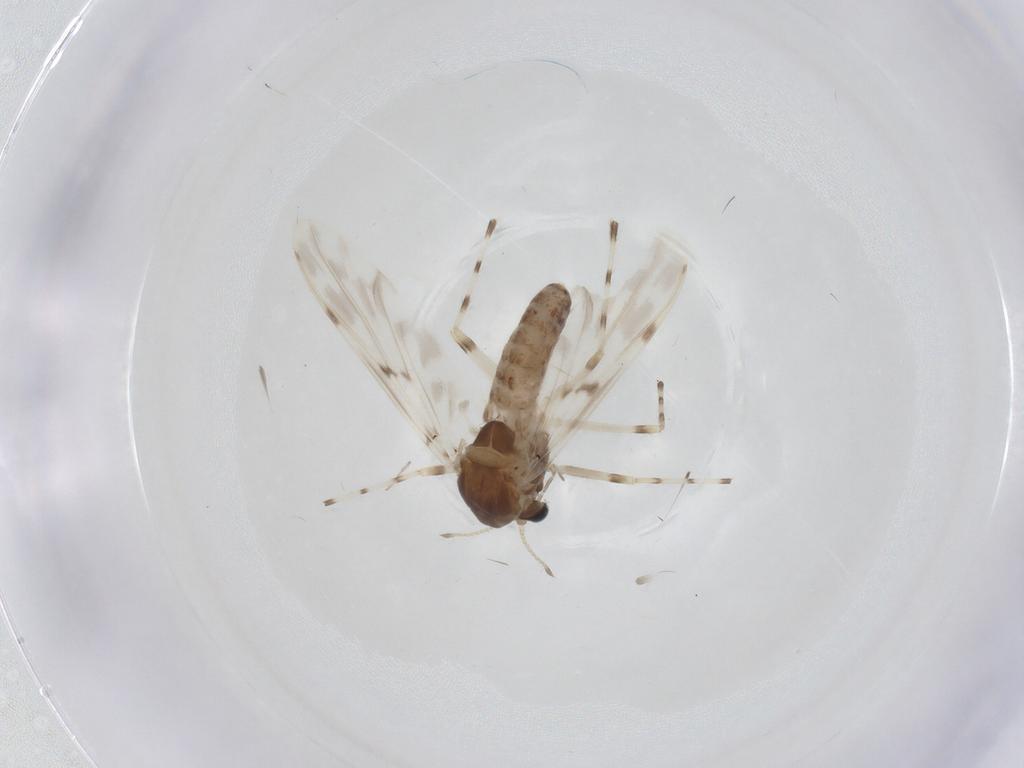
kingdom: Animalia
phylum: Arthropoda
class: Insecta
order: Diptera
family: Chironomidae
